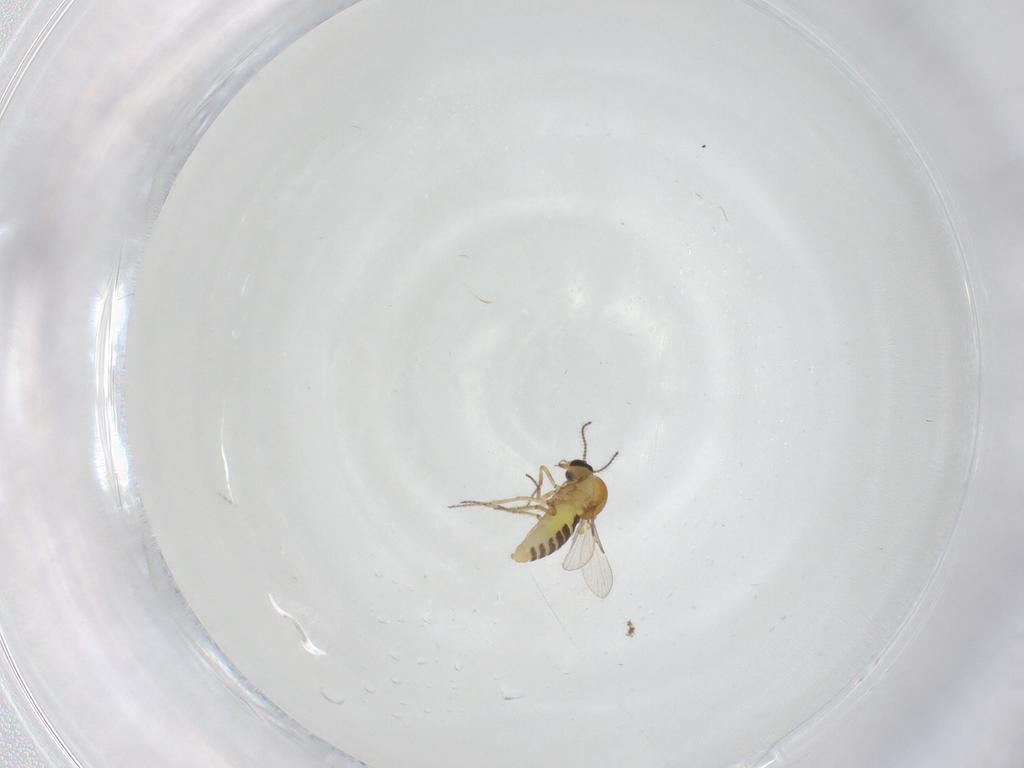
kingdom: Animalia
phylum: Arthropoda
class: Insecta
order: Diptera
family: Ceratopogonidae
